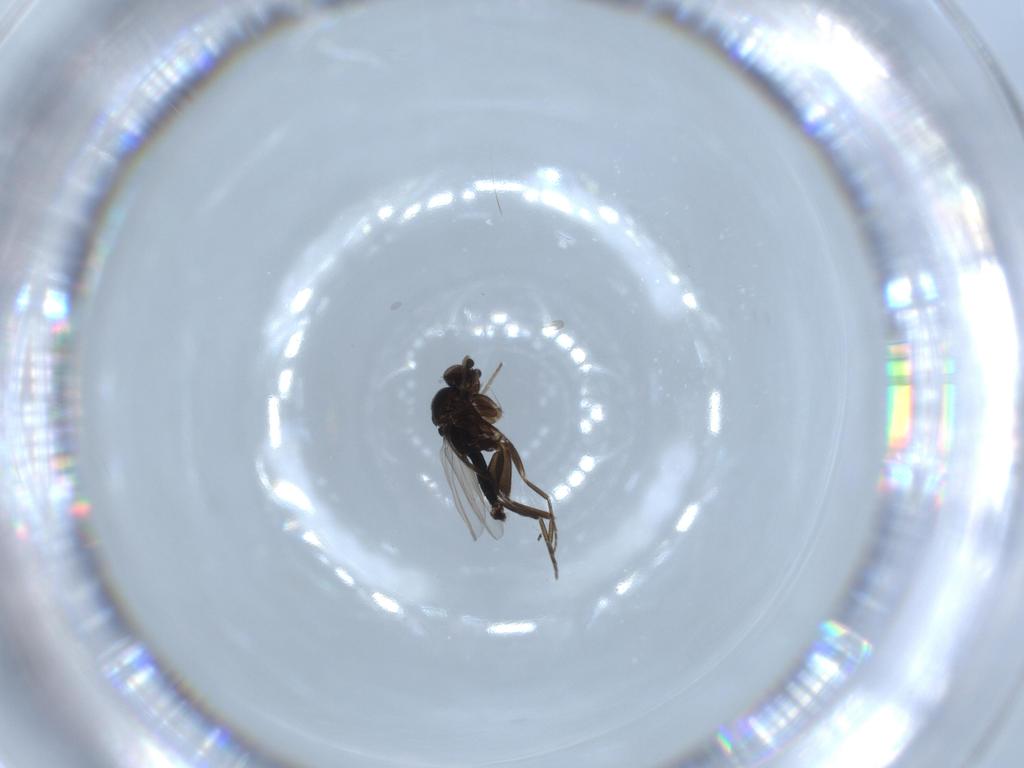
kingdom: Animalia
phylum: Arthropoda
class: Insecta
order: Diptera
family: Phoridae
